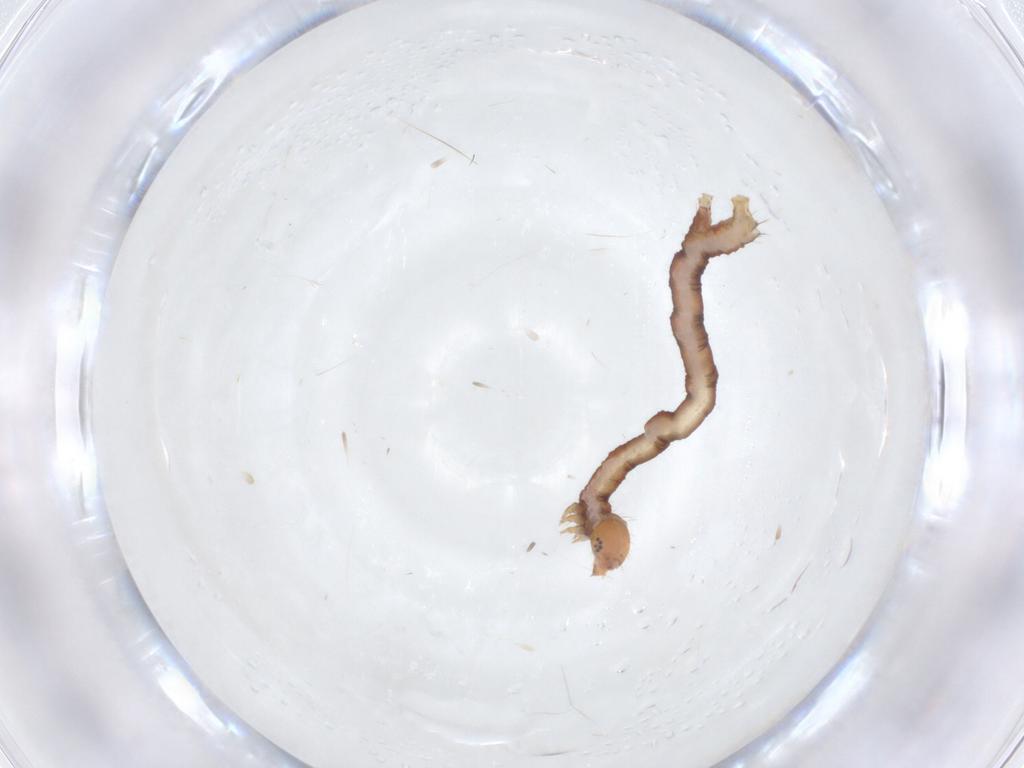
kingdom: Animalia
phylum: Arthropoda
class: Insecta
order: Lepidoptera
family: Geometridae
